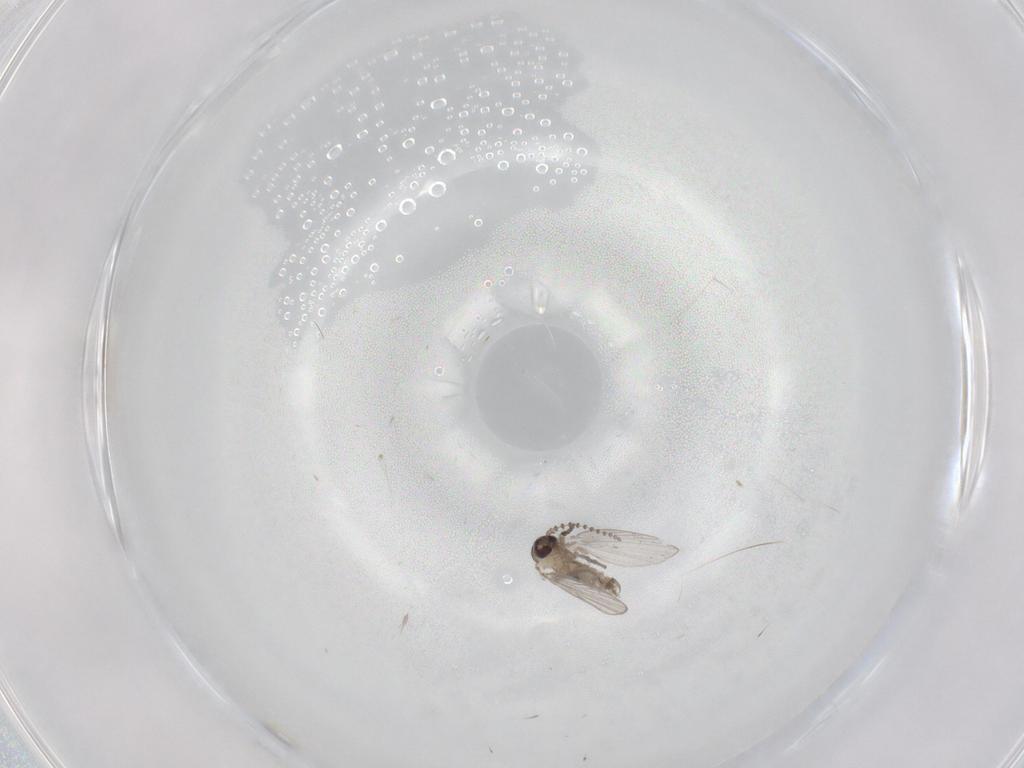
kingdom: Animalia
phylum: Arthropoda
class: Insecta
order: Diptera
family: Psychodidae
